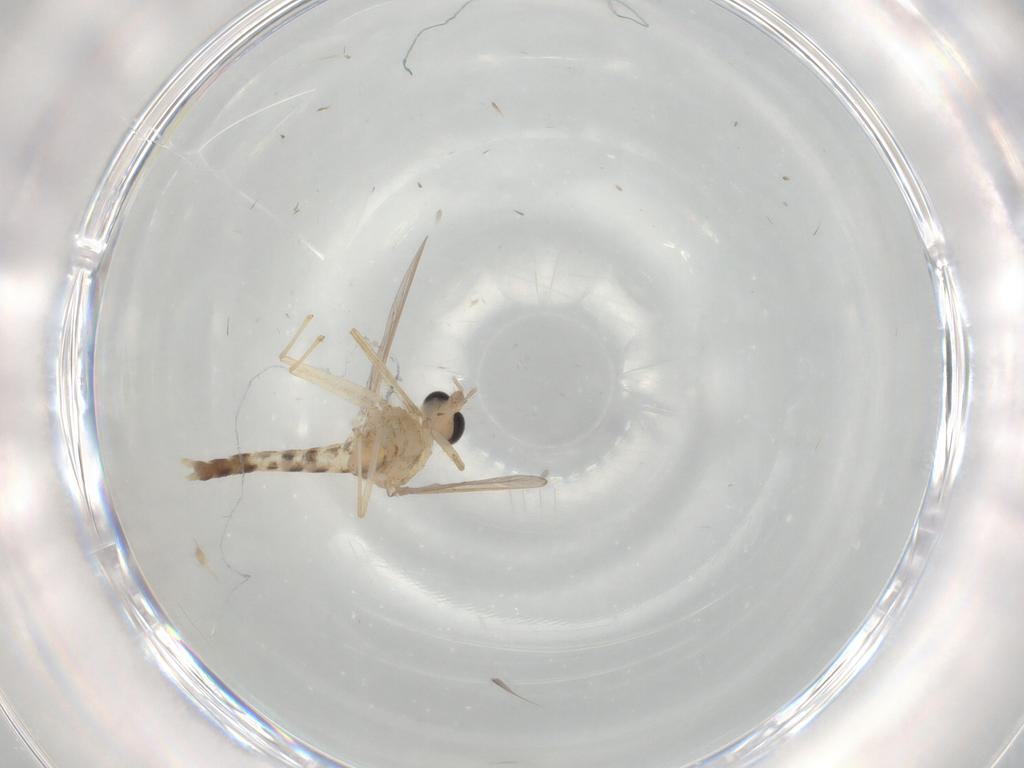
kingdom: Animalia
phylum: Arthropoda
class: Insecta
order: Diptera
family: Chironomidae
